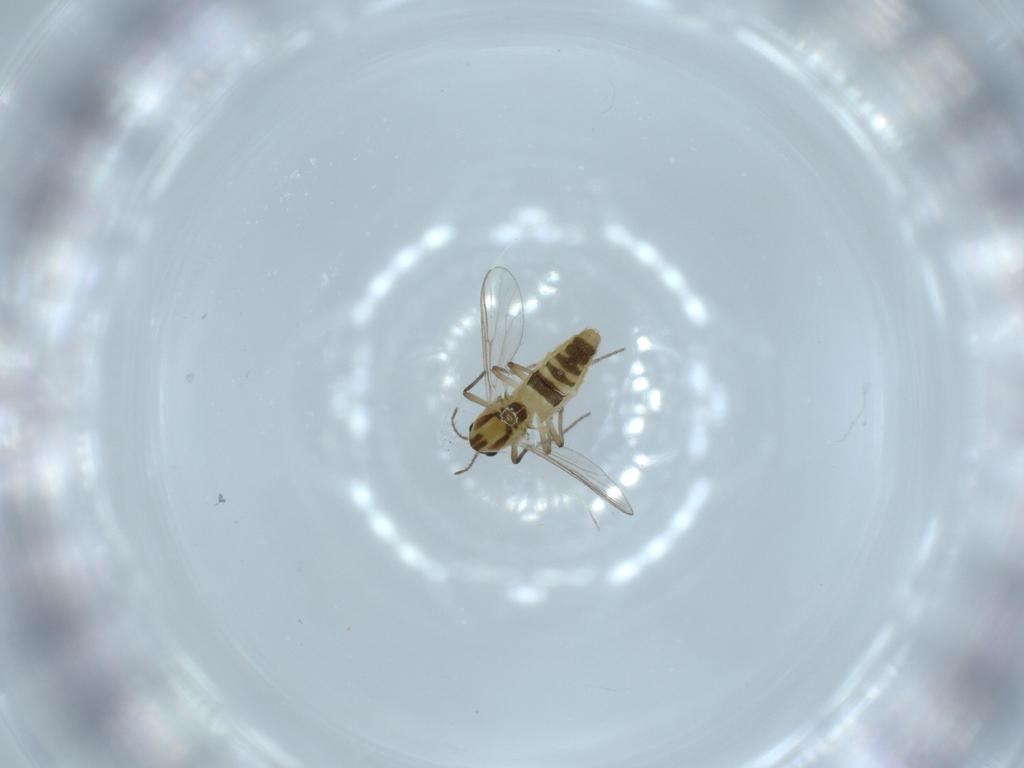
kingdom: Animalia
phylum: Arthropoda
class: Insecta
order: Diptera
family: Chironomidae
